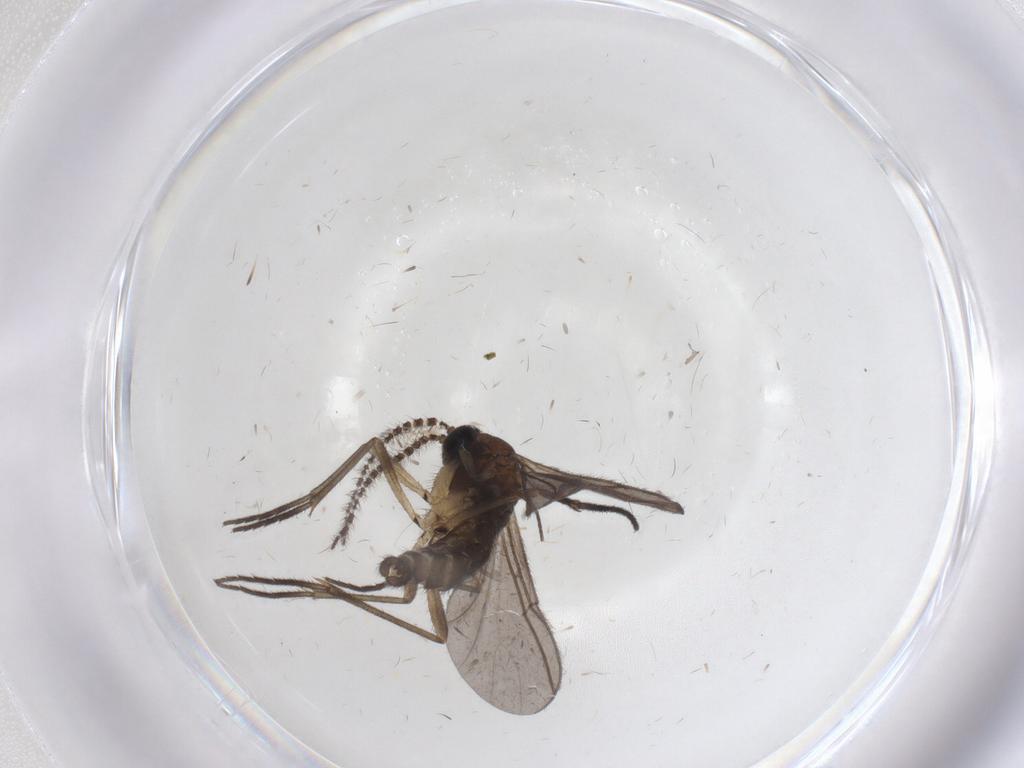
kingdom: Animalia
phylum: Arthropoda
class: Insecta
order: Diptera
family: Sciaridae
